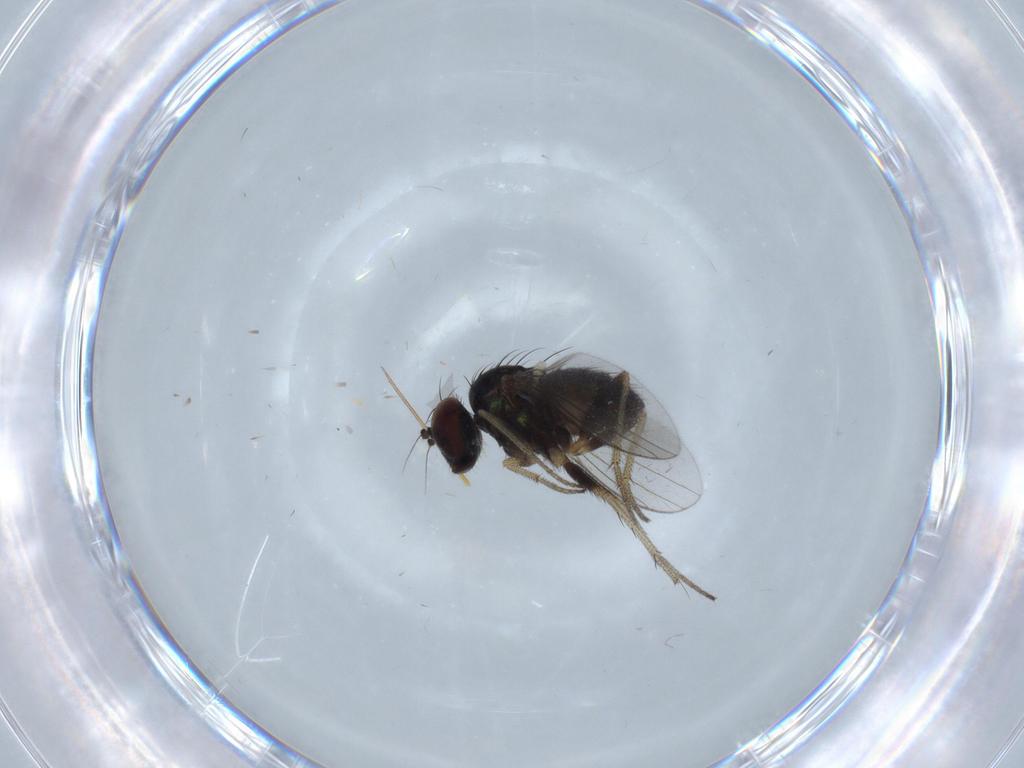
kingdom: Animalia
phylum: Arthropoda
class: Insecta
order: Diptera
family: Dolichopodidae
